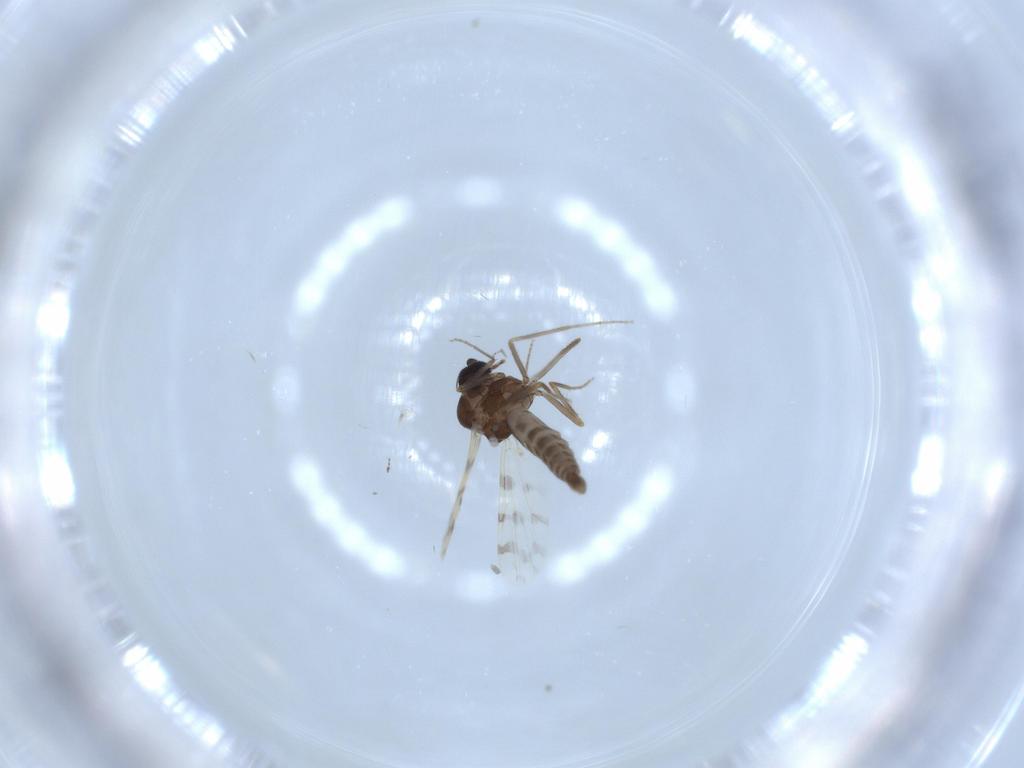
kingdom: Animalia
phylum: Arthropoda
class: Insecta
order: Diptera
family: Ceratopogonidae
